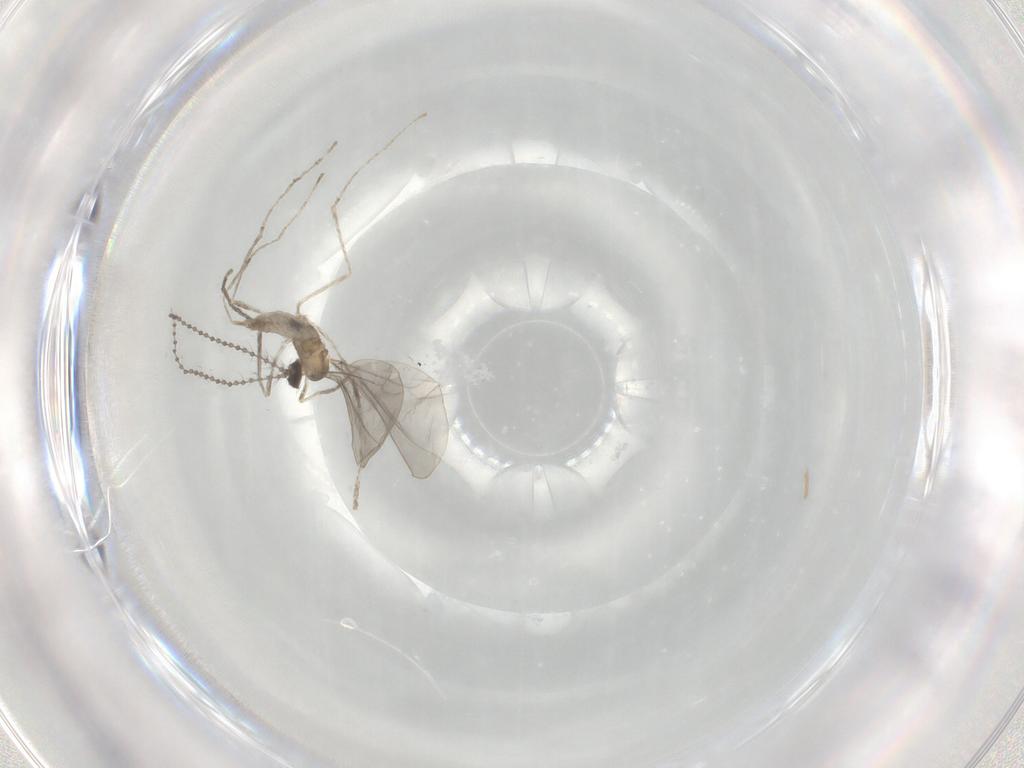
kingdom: Animalia
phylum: Arthropoda
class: Insecta
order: Diptera
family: Cecidomyiidae
